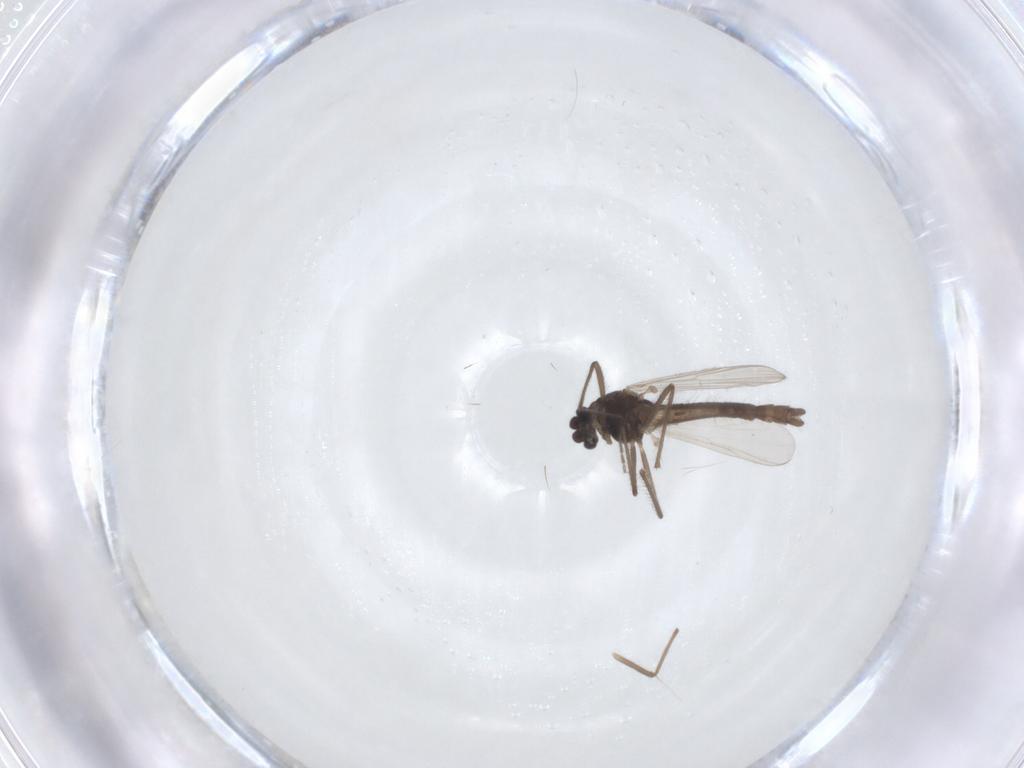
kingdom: Animalia
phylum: Arthropoda
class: Insecta
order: Diptera
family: Chironomidae
